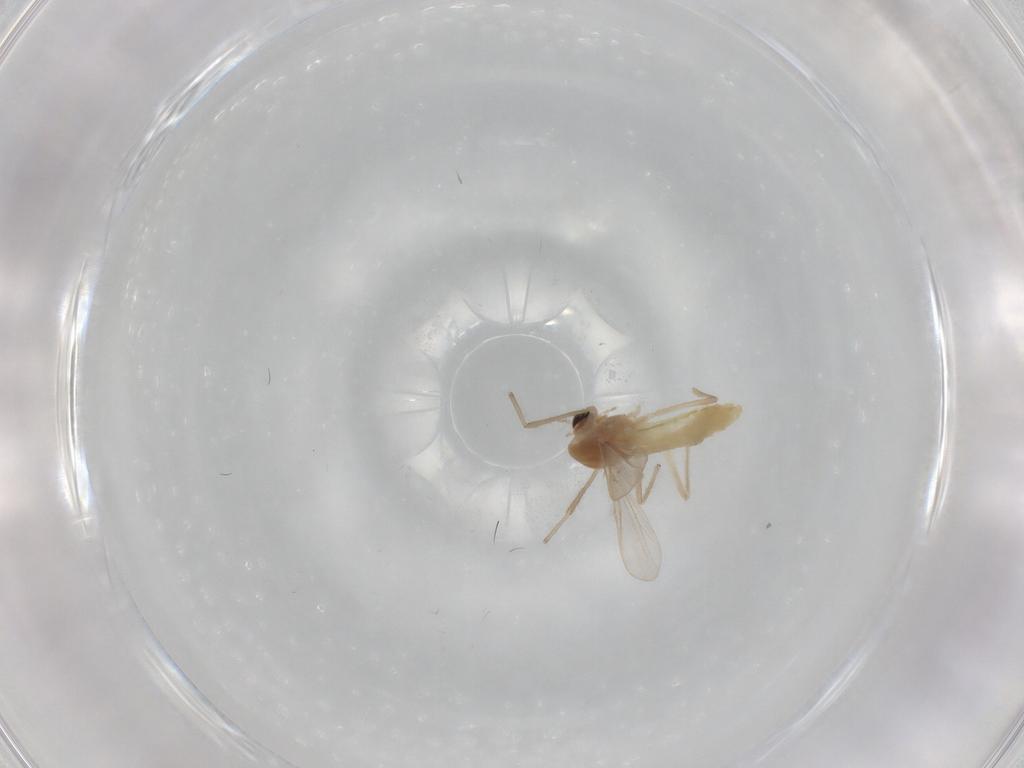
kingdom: Animalia
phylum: Arthropoda
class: Insecta
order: Diptera
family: Chironomidae
